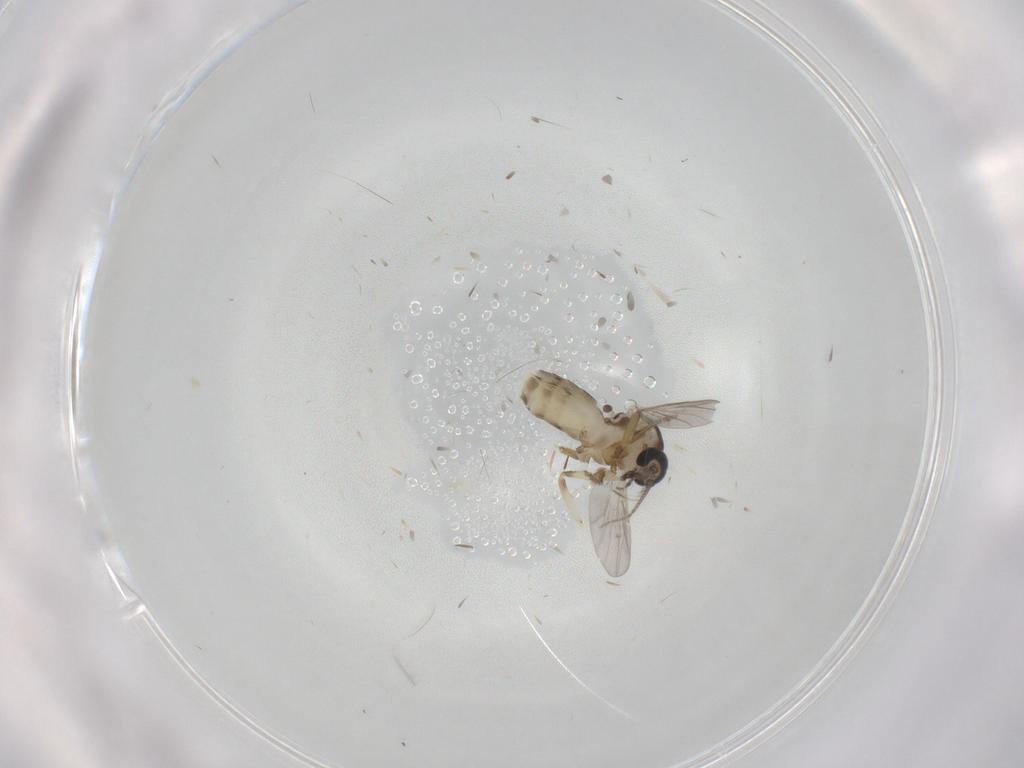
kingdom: Animalia
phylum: Arthropoda
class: Insecta
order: Diptera
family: Ceratopogonidae
